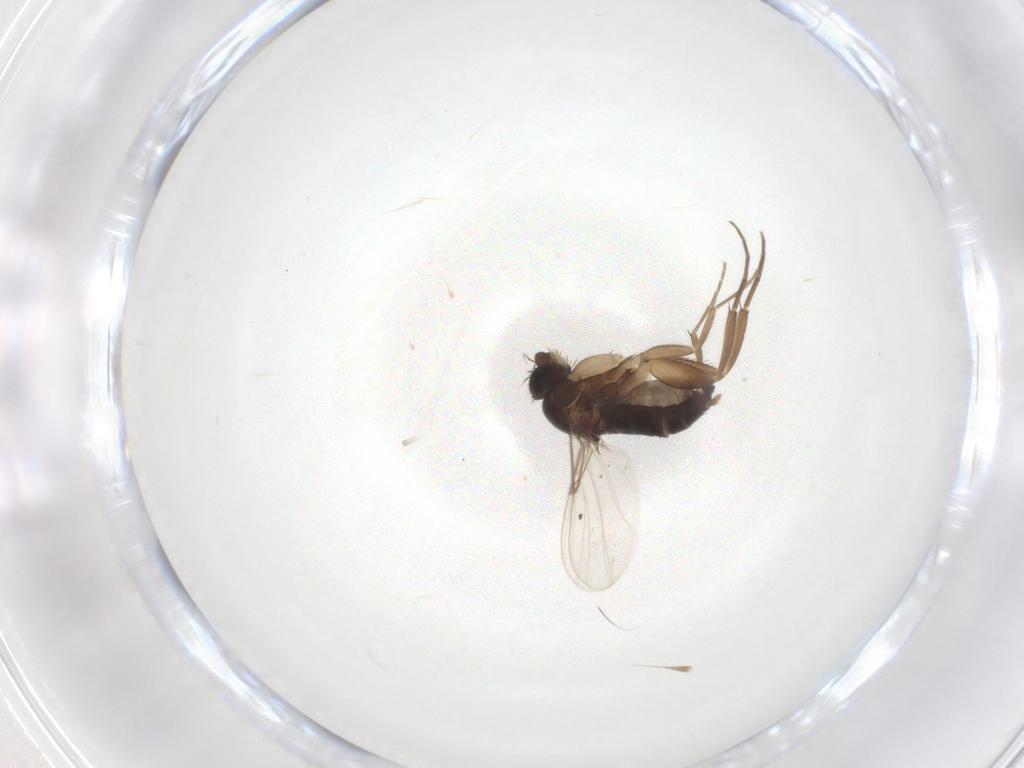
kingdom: Animalia
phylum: Arthropoda
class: Insecta
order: Diptera
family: Phoridae
